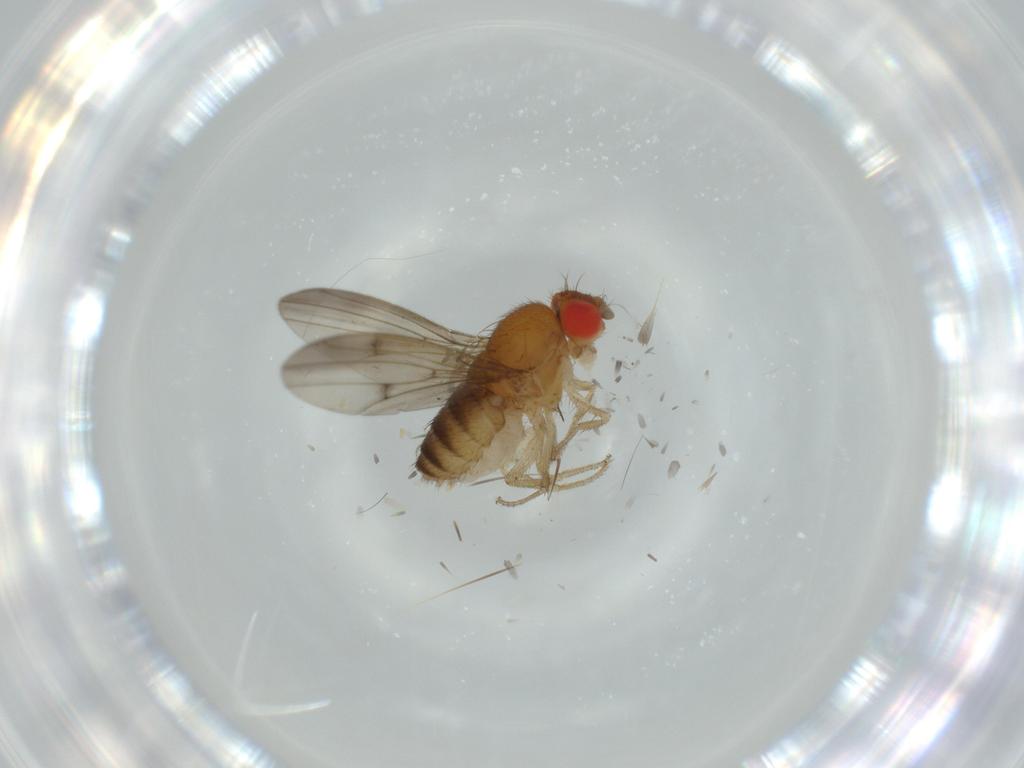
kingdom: Animalia
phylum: Arthropoda
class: Insecta
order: Diptera
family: Drosophilidae
